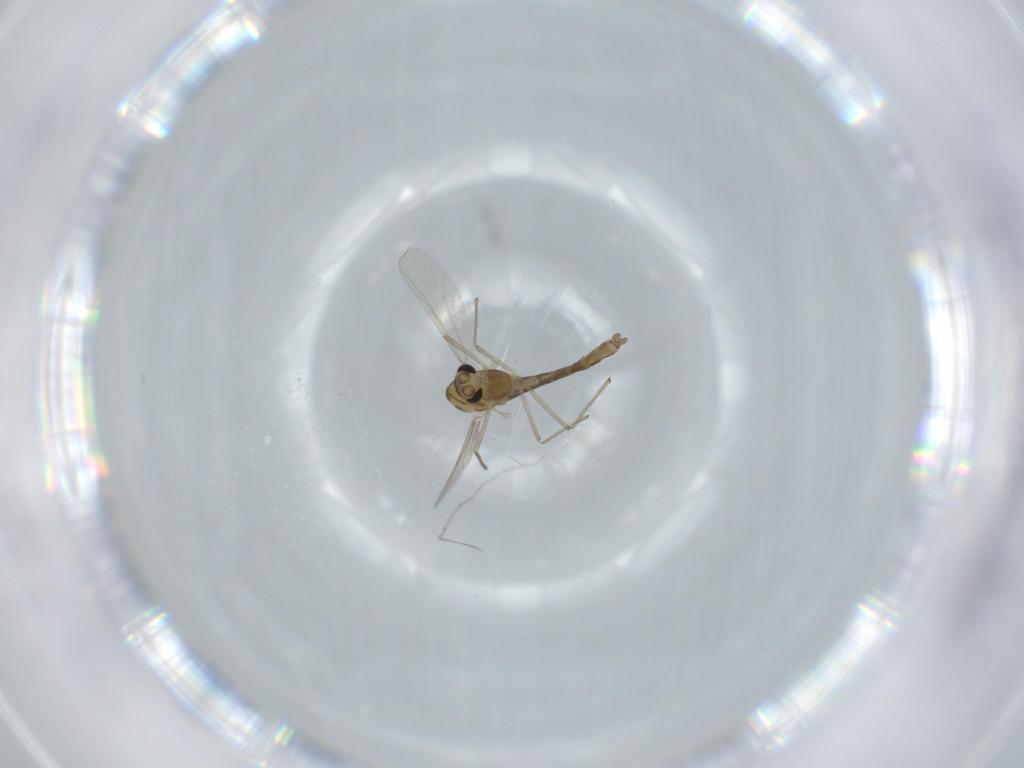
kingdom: Animalia
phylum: Arthropoda
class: Insecta
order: Diptera
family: Chironomidae
